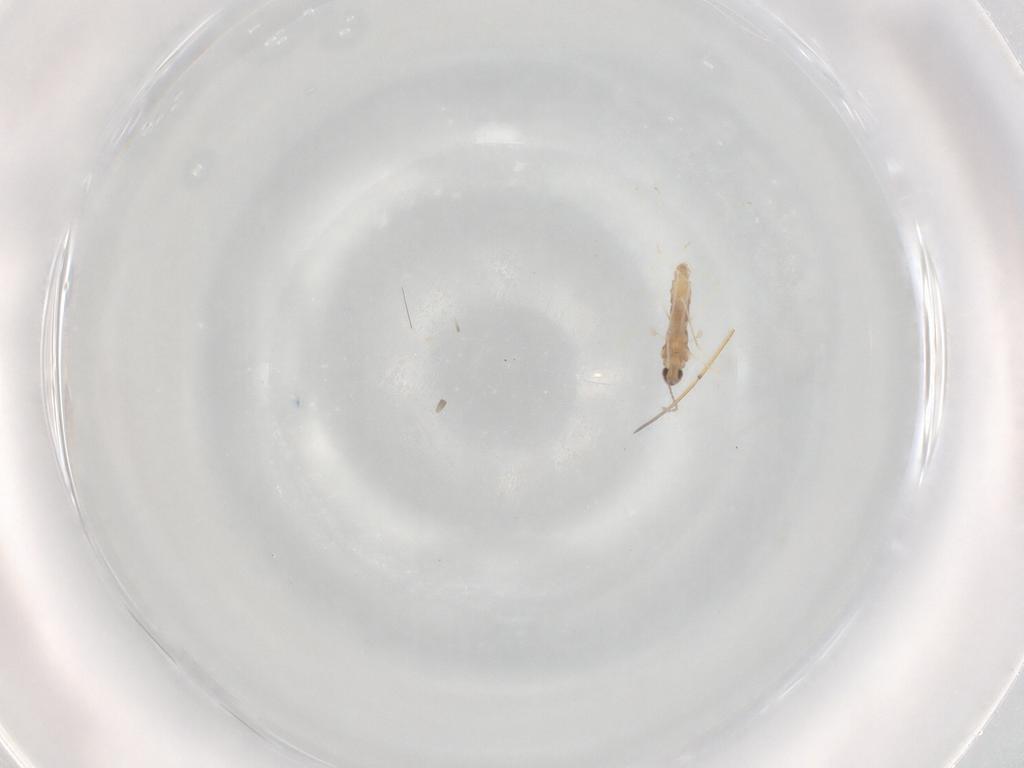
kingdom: Animalia
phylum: Arthropoda
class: Insecta
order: Diptera
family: Cecidomyiidae
